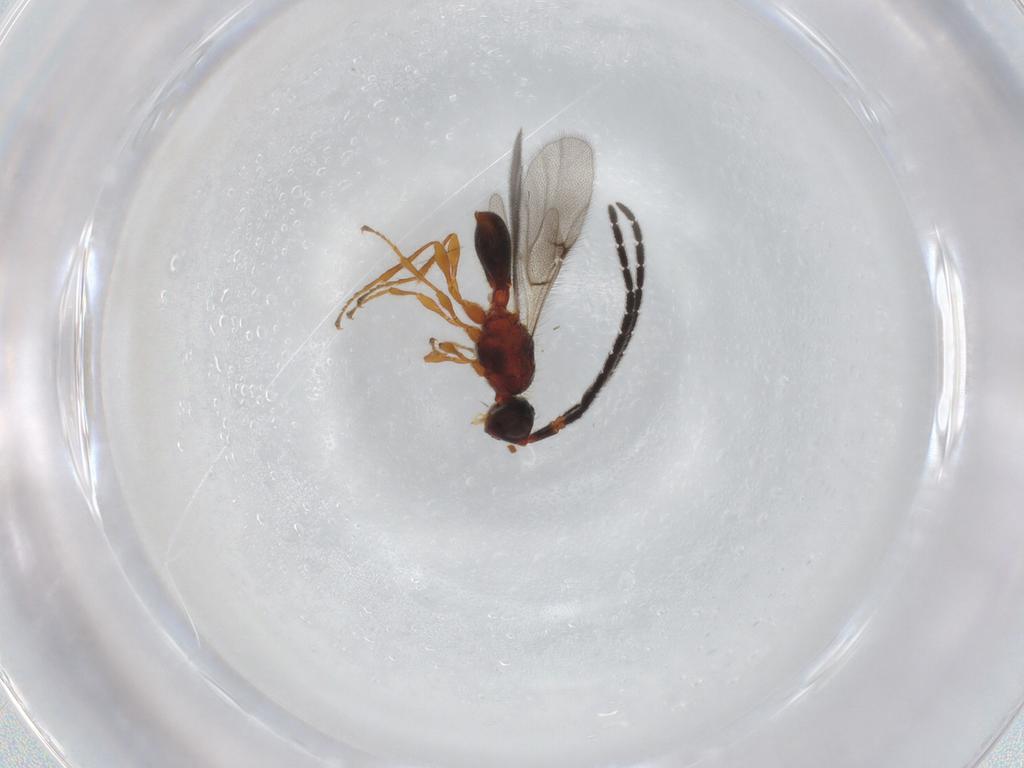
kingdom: Animalia
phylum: Arthropoda
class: Insecta
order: Hymenoptera
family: Diapriidae
